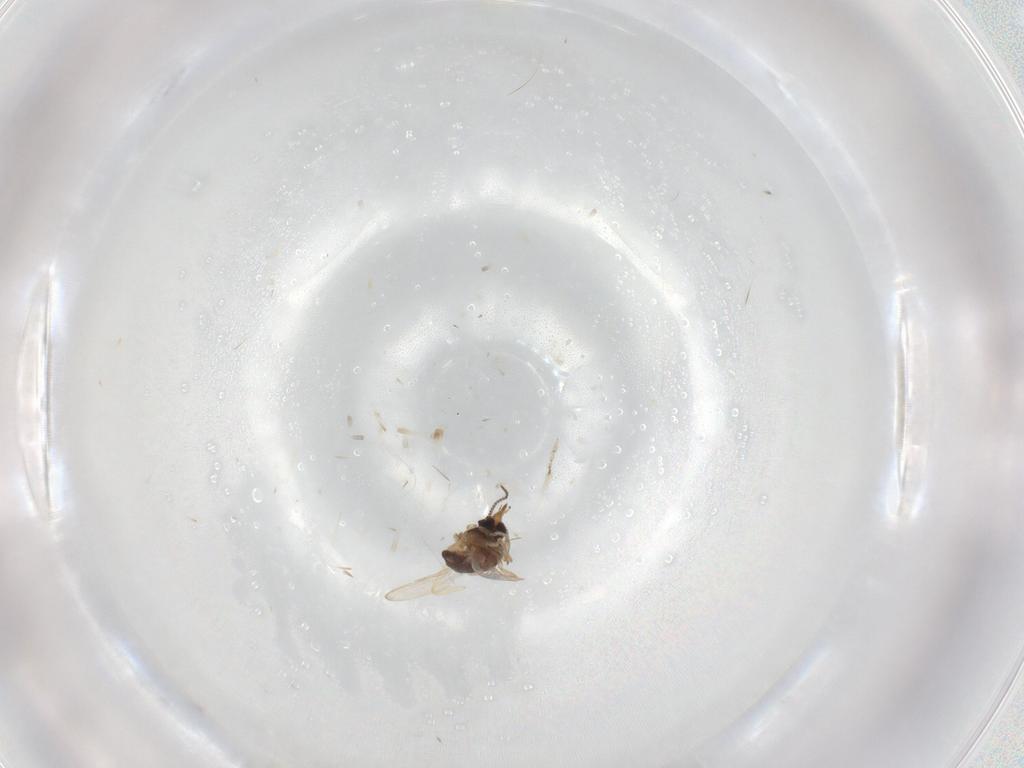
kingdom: Animalia
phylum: Arthropoda
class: Insecta
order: Diptera
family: Ceratopogonidae
